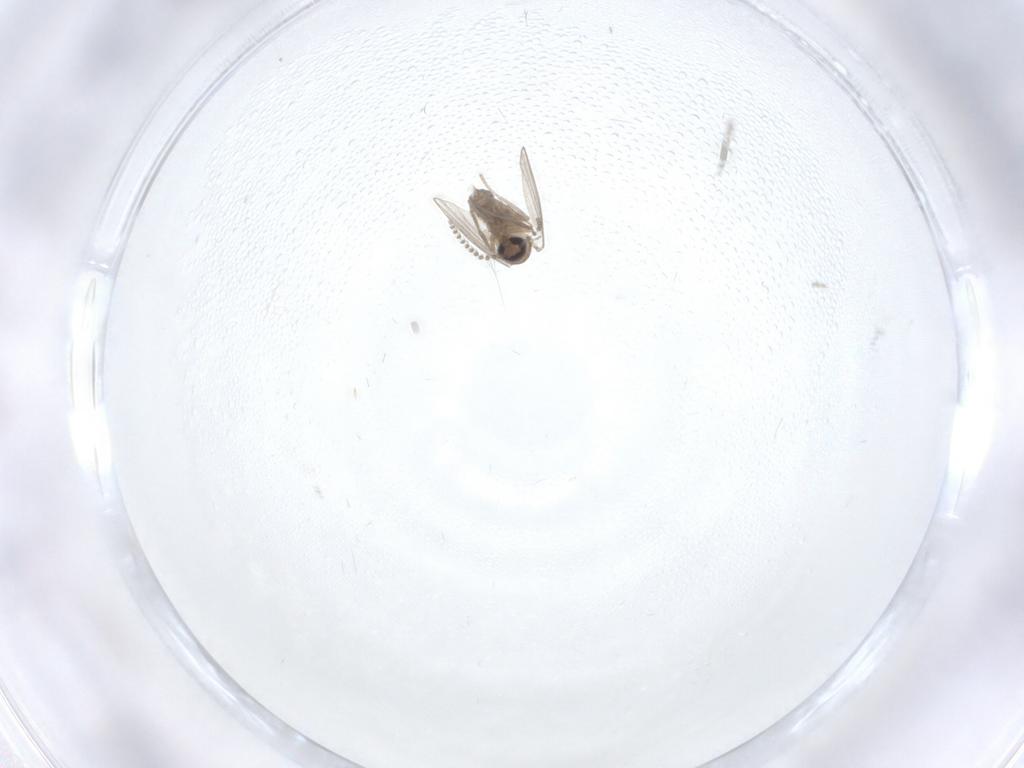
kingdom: Animalia
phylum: Arthropoda
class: Insecta
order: Diptera
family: Psychodidae
